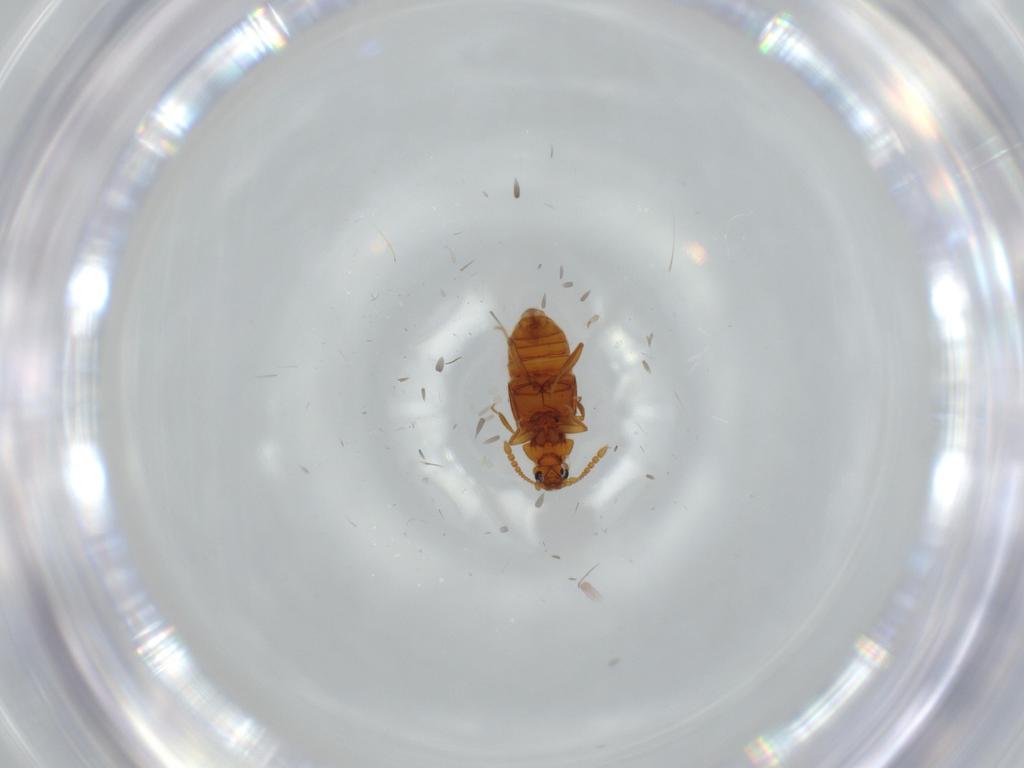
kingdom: Animalia
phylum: Arthropoda
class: Insecta
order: Coleoptera
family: Staphylinidae
